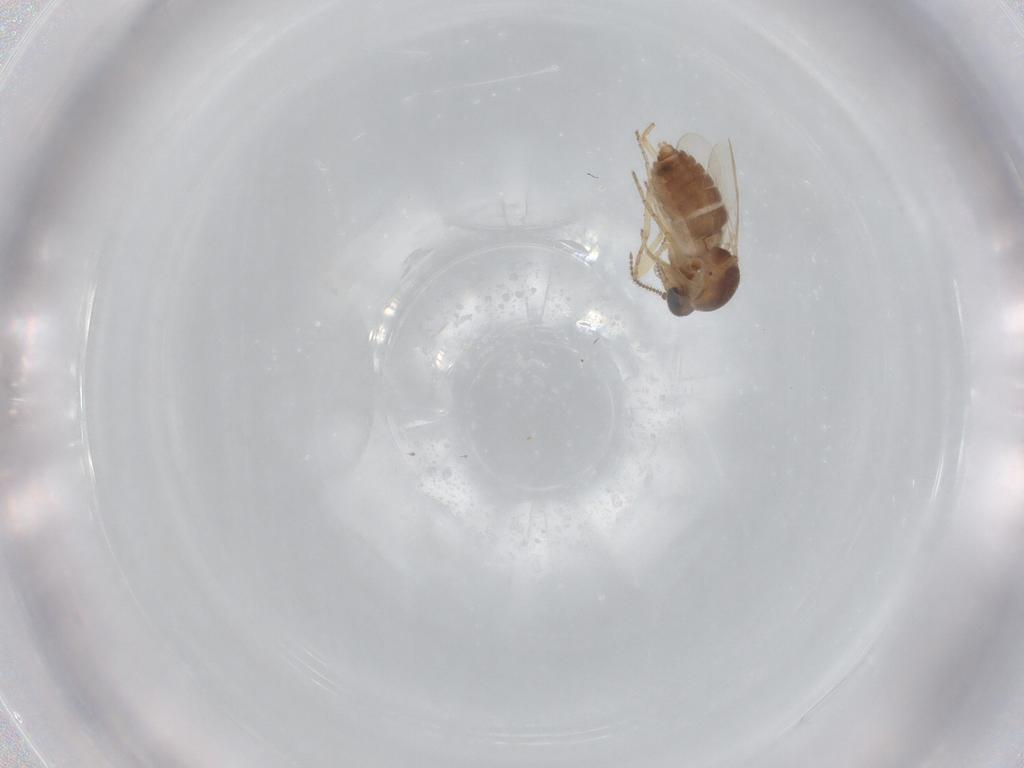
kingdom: Animalia
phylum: Arthropoda
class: Insecta
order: Diptera
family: Ceratopogonidae
